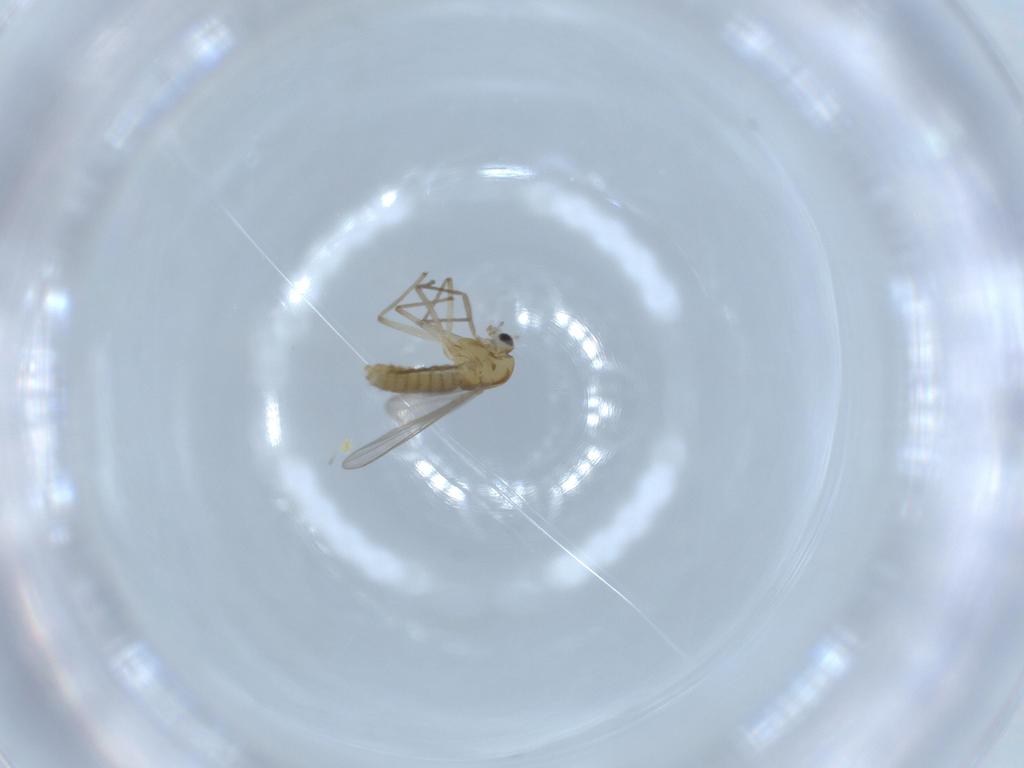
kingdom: Animalia
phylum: Arthropoda
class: Insecta
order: Diptera
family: Chironomidae
